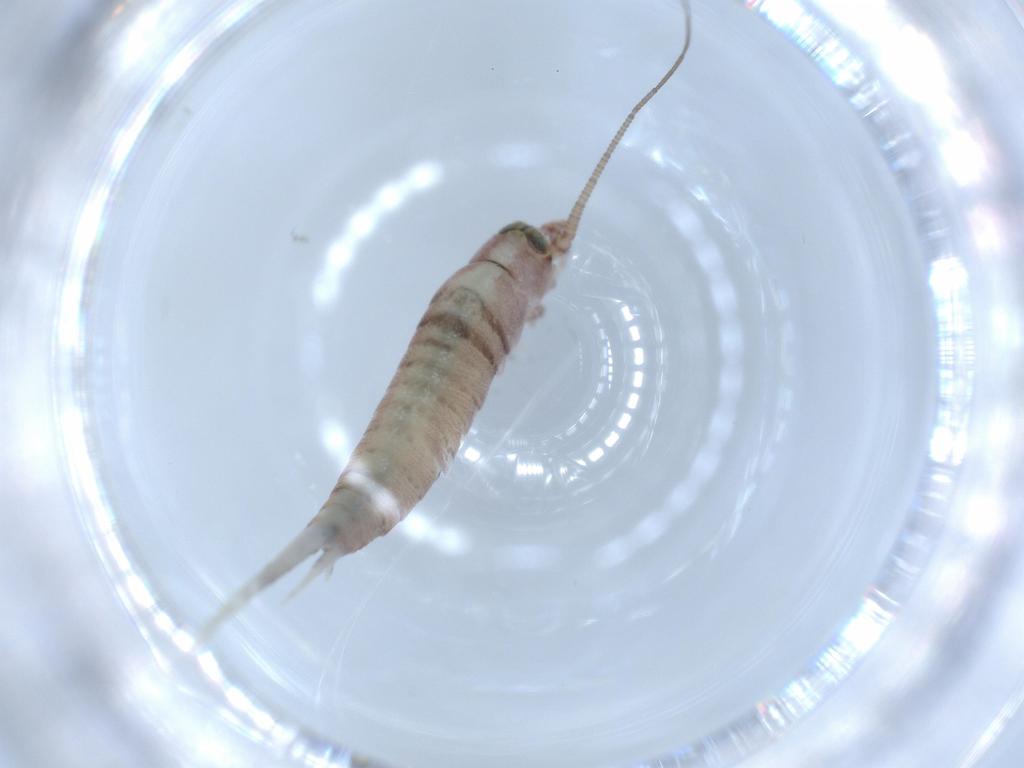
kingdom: Animalia
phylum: Arthropoda
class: Insecta
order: Archaeognatha
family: Machilidae
